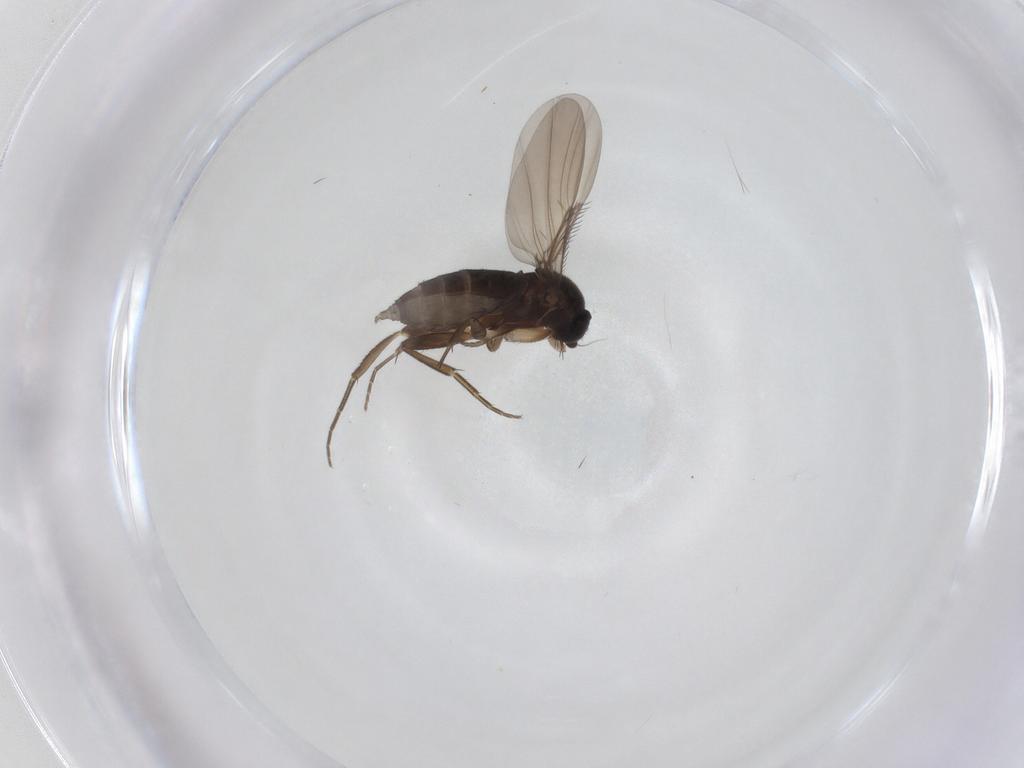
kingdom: Animalia
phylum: Arthropoda
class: Insecta
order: Diptera
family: Phoridae
